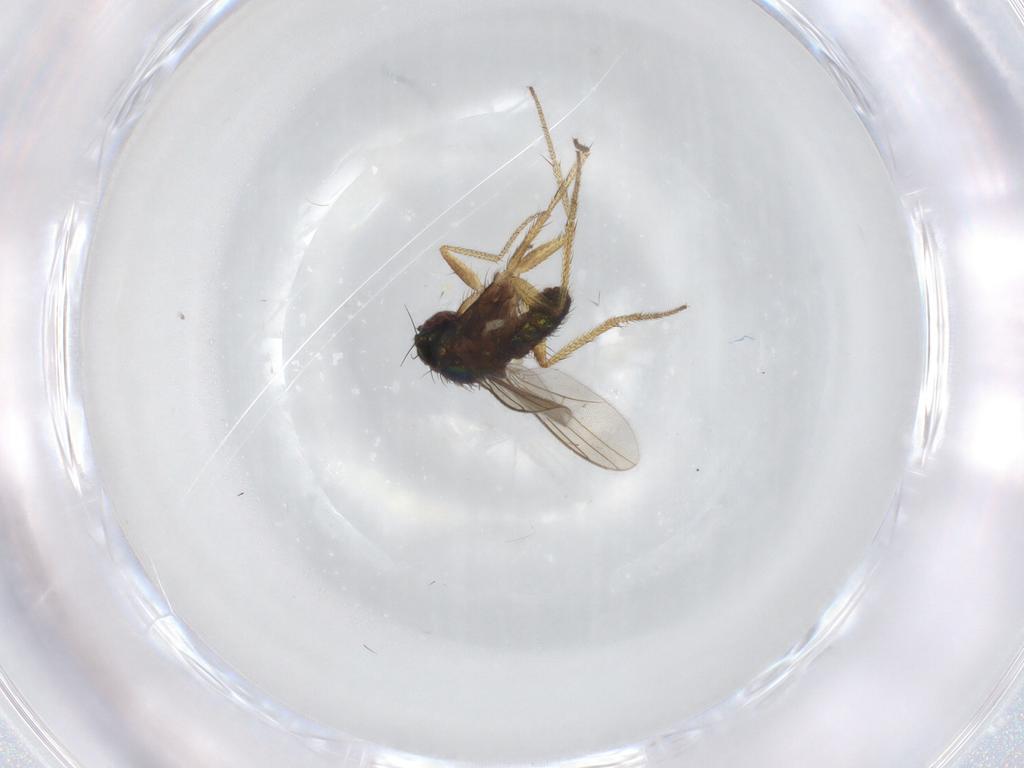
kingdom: Animalia
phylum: Arthropoda
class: Insecta
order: Diptera
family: Dolichopodidae
